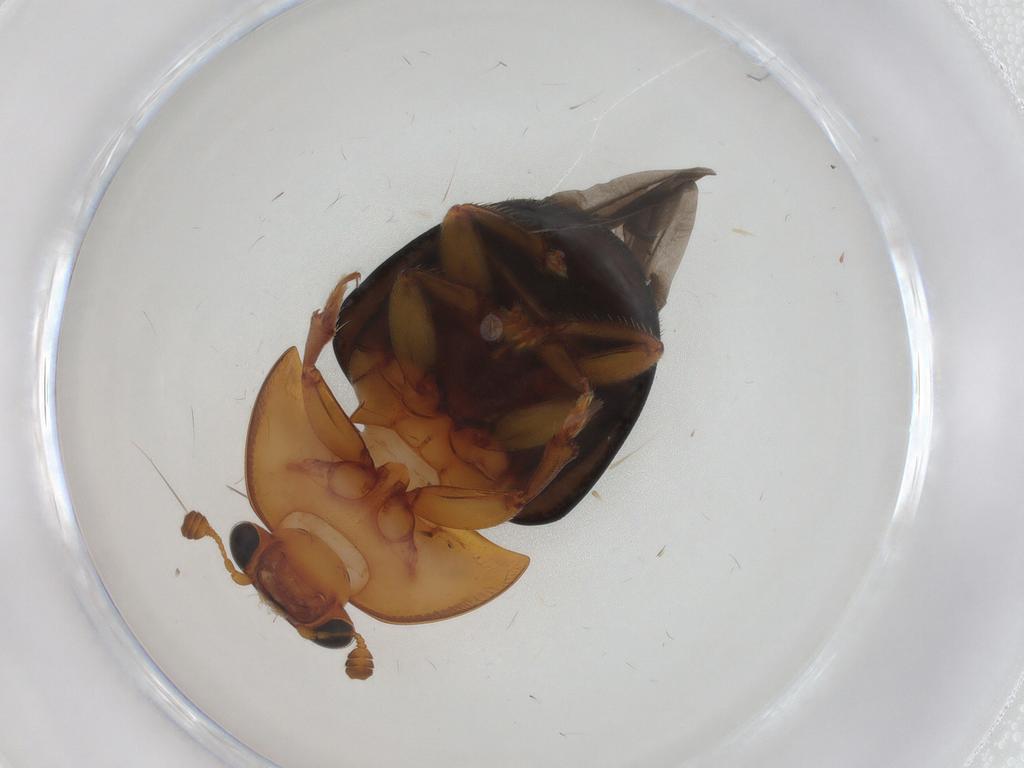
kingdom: Animalia
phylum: Arthropoda
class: Insecta
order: Coleoptera
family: Nitidulidae
